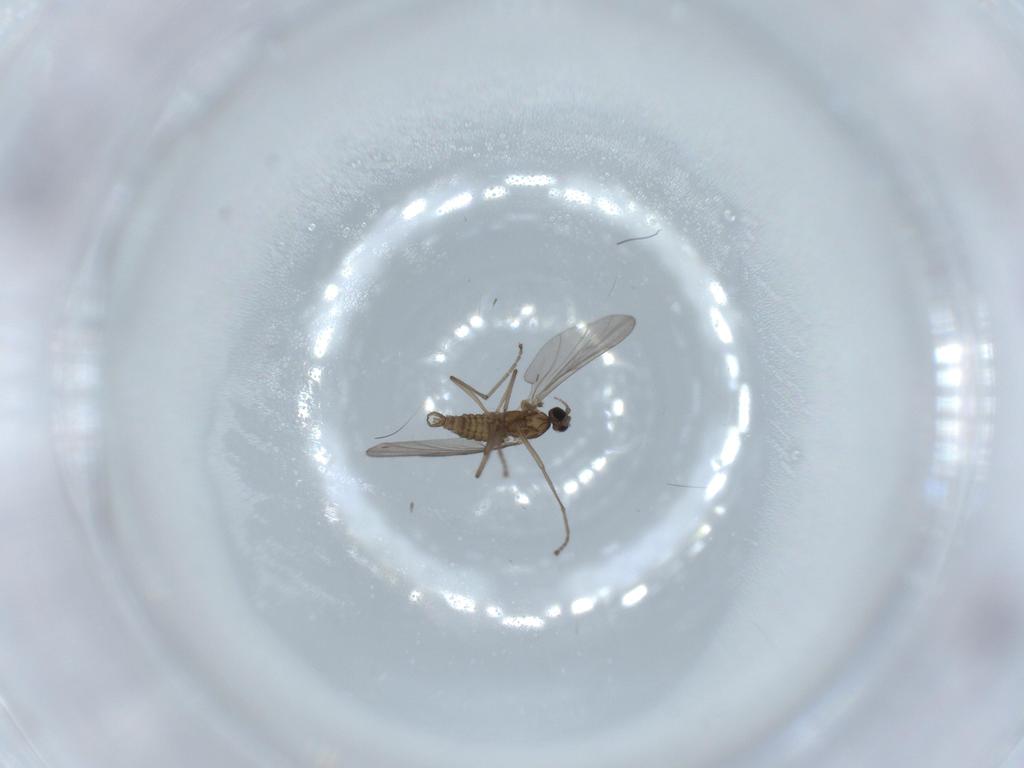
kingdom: Animalia
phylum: Arthropoda
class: Insecta
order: Diptera
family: Cecidomyiidae
